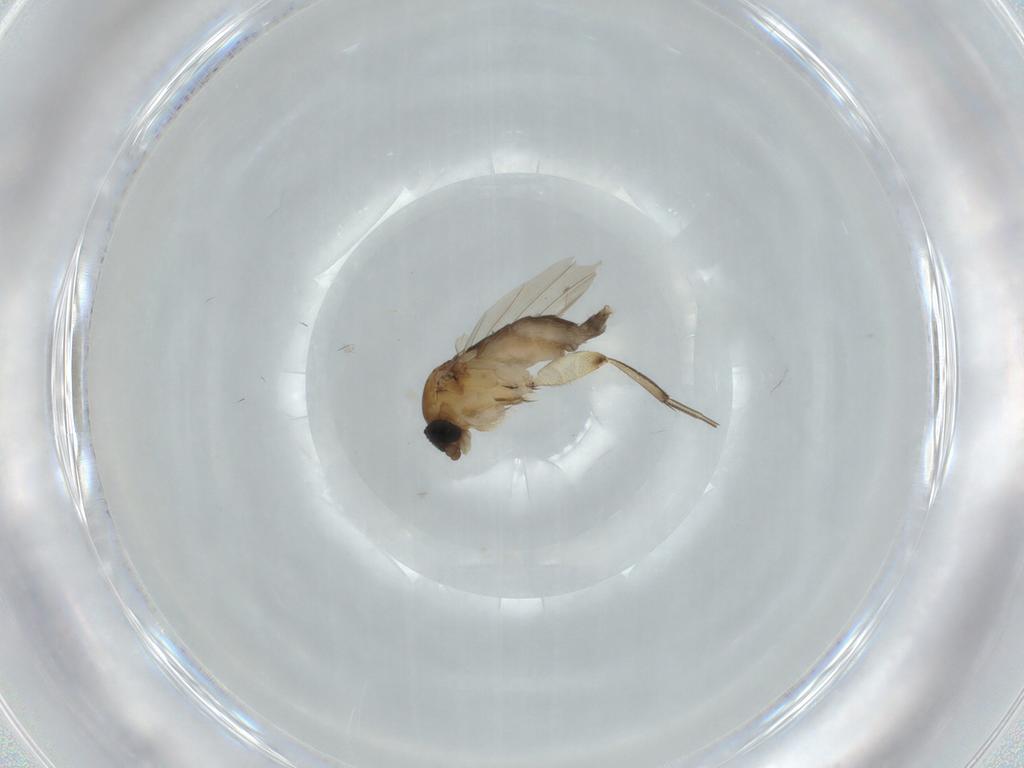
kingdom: Animalia
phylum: Arthropoda
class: Insecta
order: Diptera
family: Phoridae
